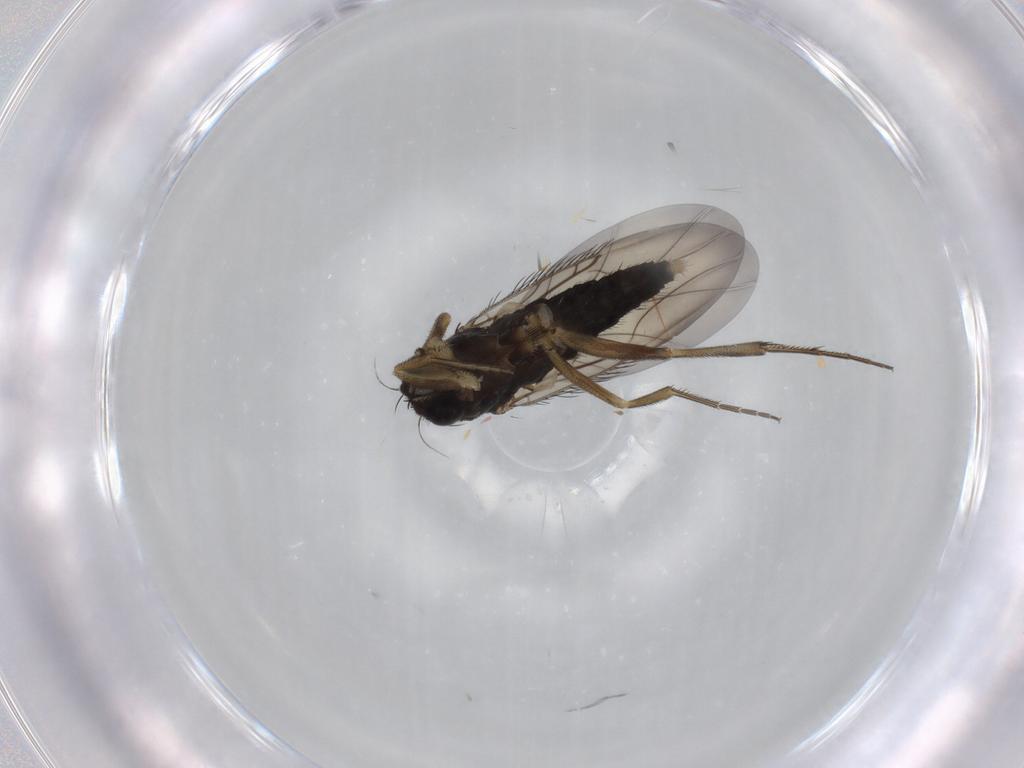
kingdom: Animalia
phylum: Arthropoda
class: Insecta
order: Diptera
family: Phoridae
